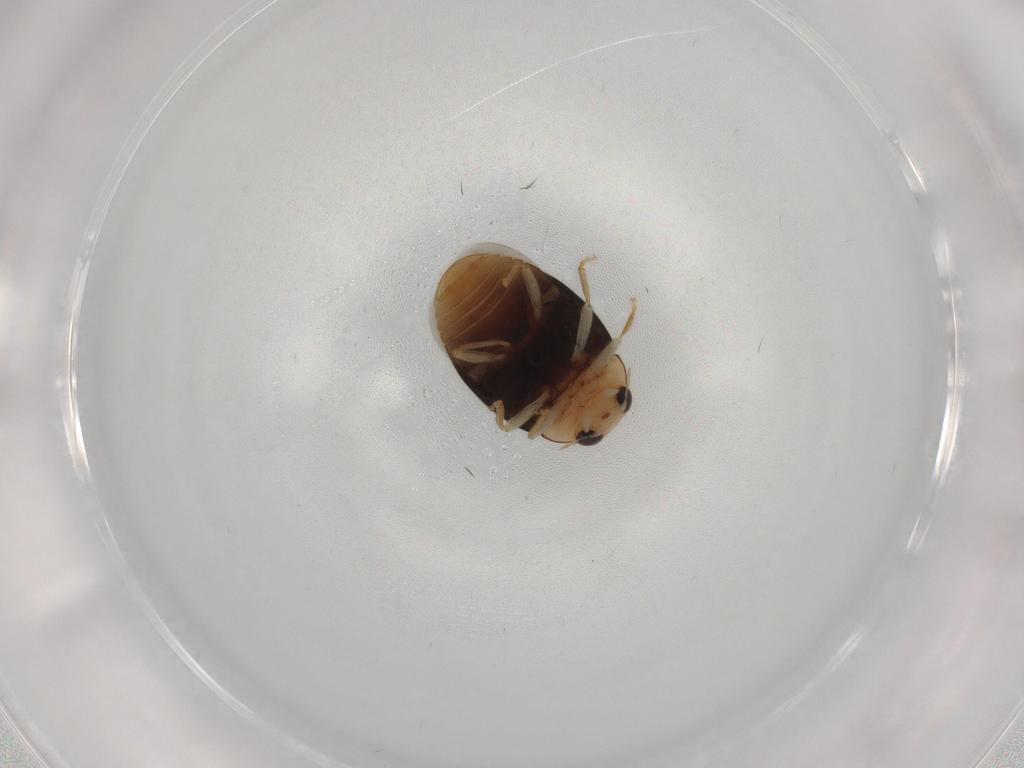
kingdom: Animalia
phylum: Arthropoda
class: Insecta
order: Coleoptera
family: Coccinellidae
